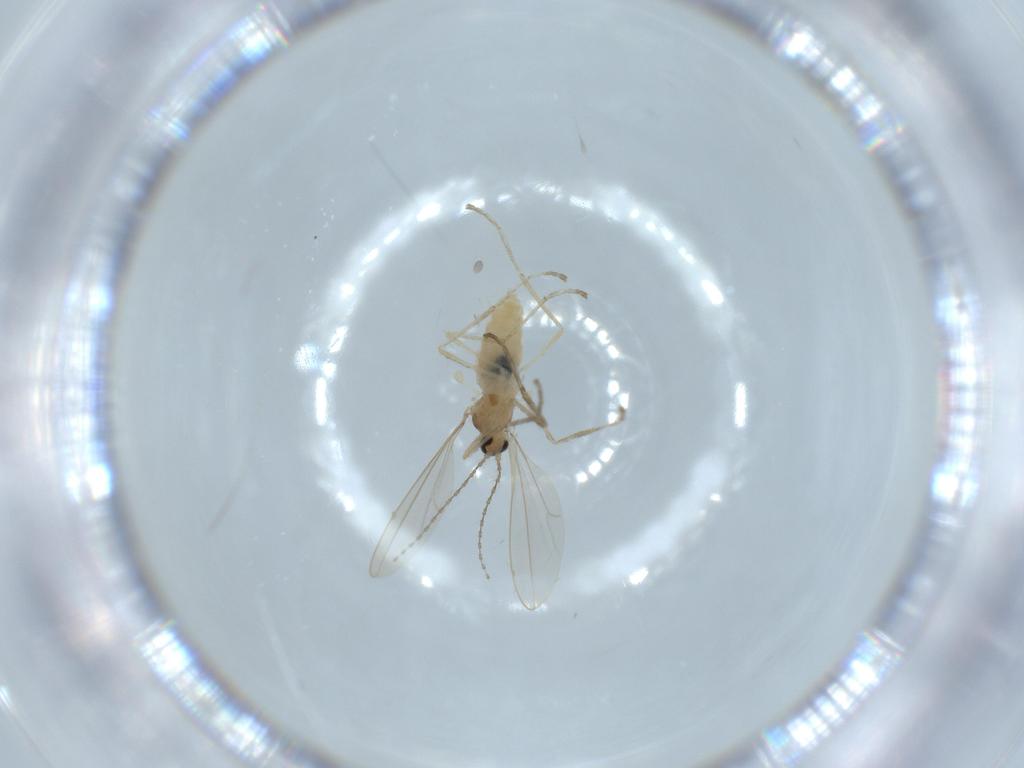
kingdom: Animalia
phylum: Arthropoda
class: Insecta
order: Diptera
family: Cecidomyiidae
